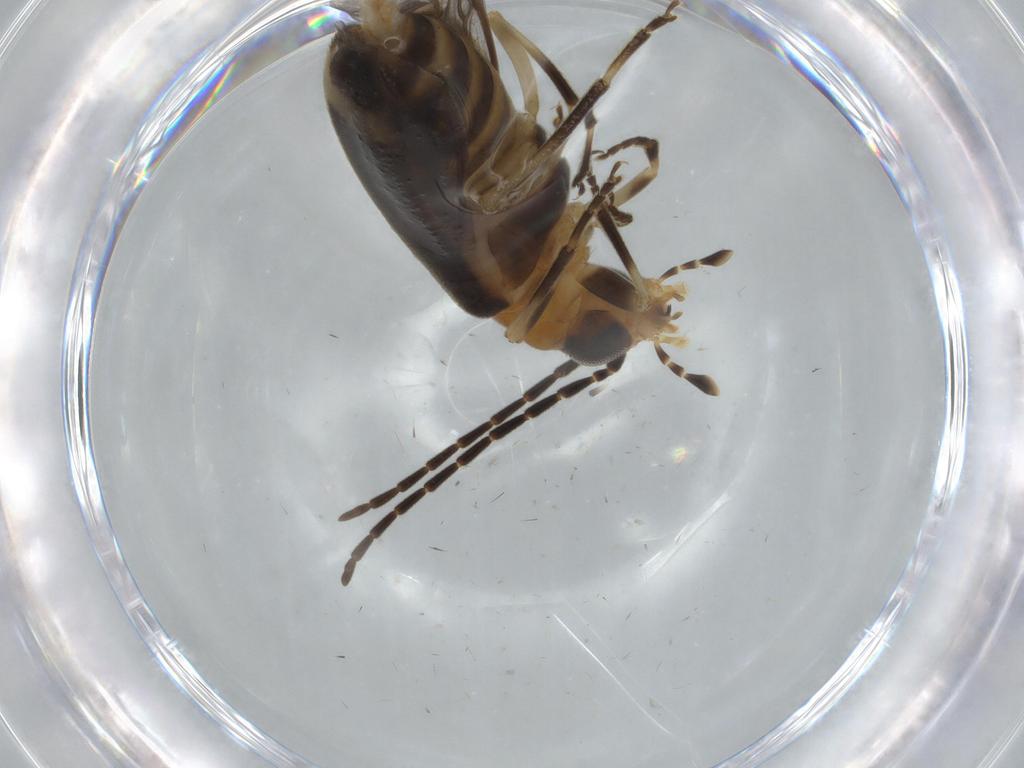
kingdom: Animalia
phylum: Arthropoda
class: Insecta
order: Coleoptera
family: Oedemeridae
